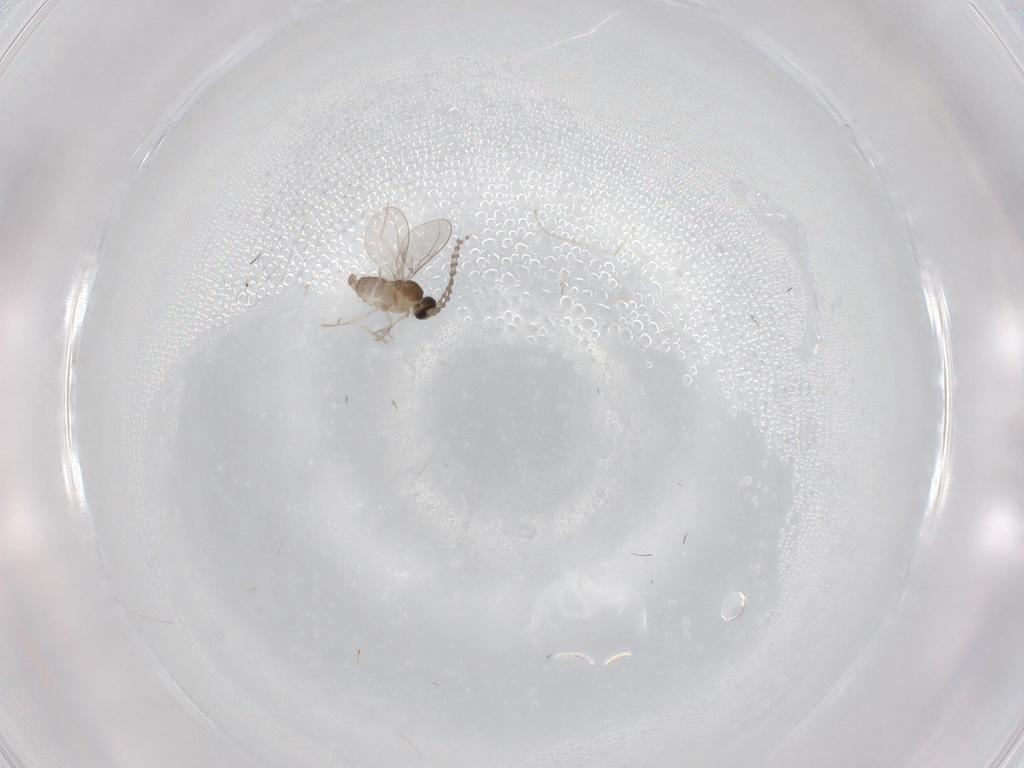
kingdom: Animalia
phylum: Arthropoda
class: Insecta
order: Diptera
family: Cecidomyiidae
